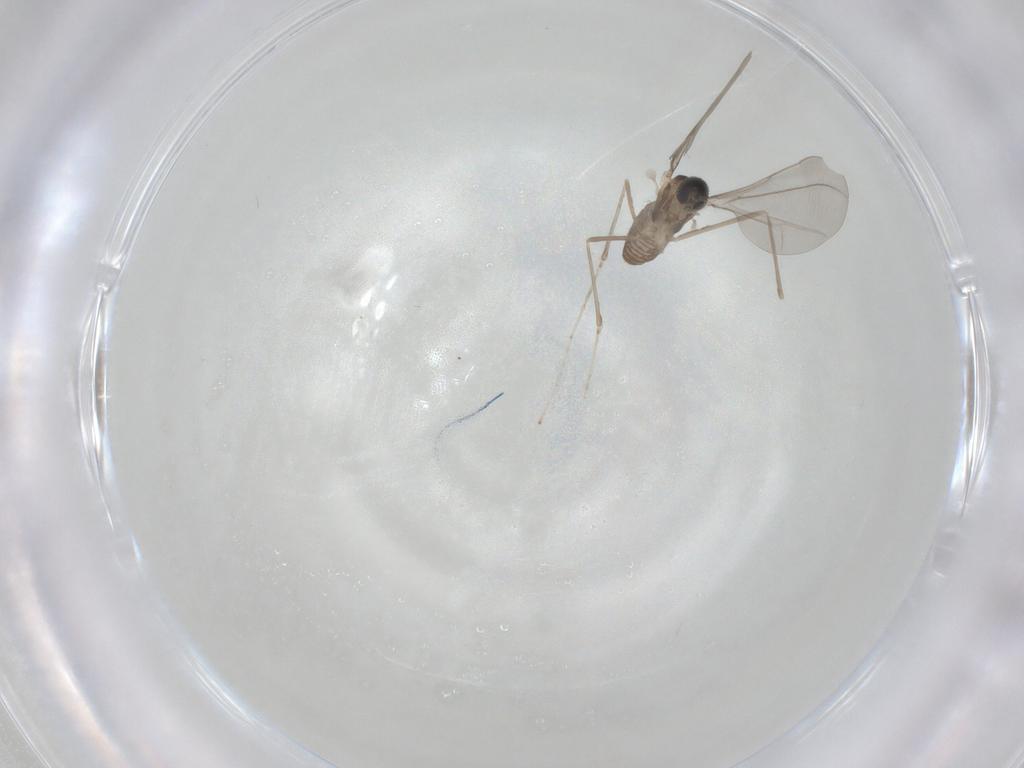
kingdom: Animalia
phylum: Arthropoda
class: Insecta
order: Diptera
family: Cecidomyiidae
